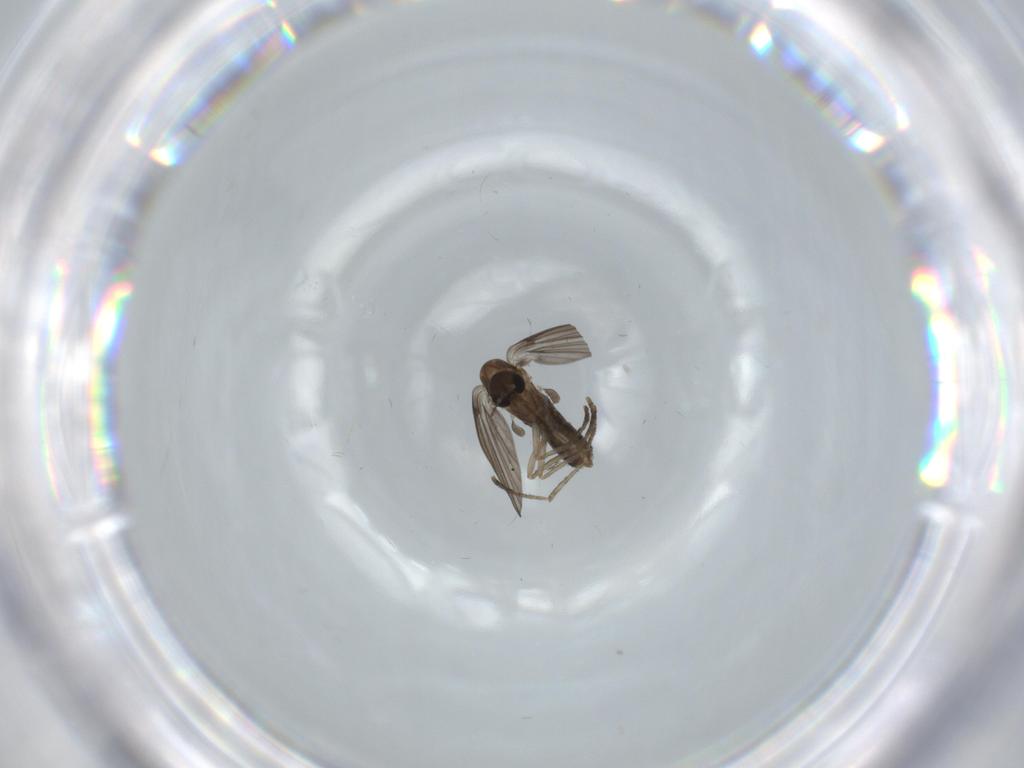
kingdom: Animalia
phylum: Arthropoda
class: Insecta
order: Diptera
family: Psychodidae
